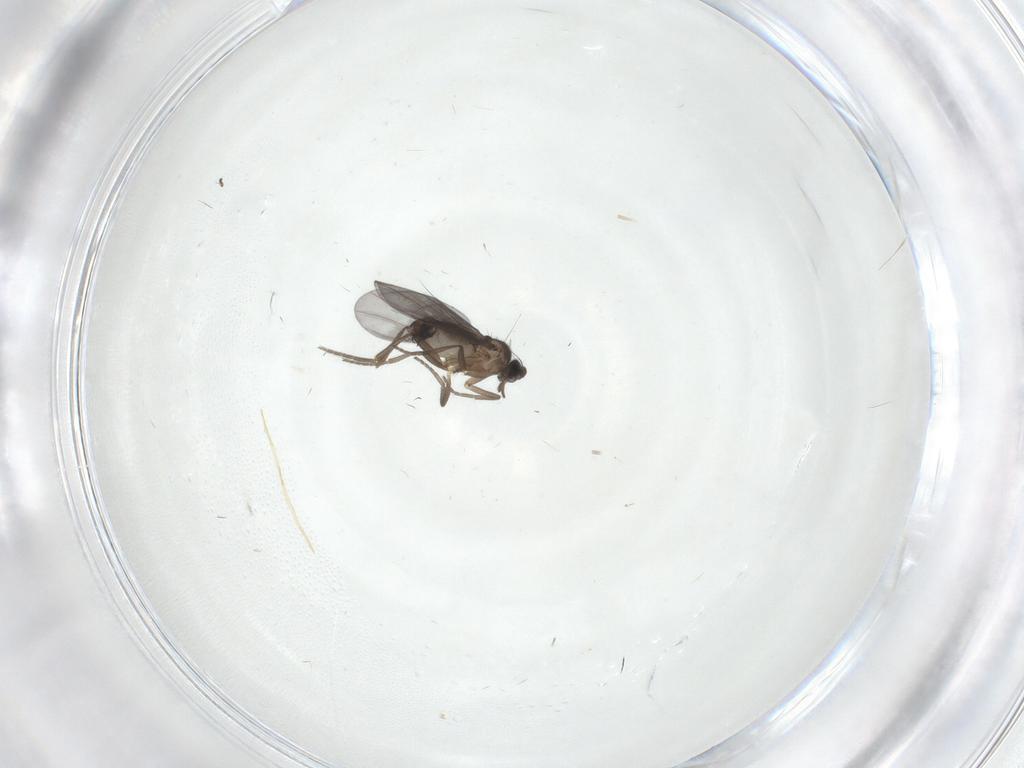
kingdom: Animalia
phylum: Arthropoda
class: Insecta
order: Diptera
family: Phoridae
